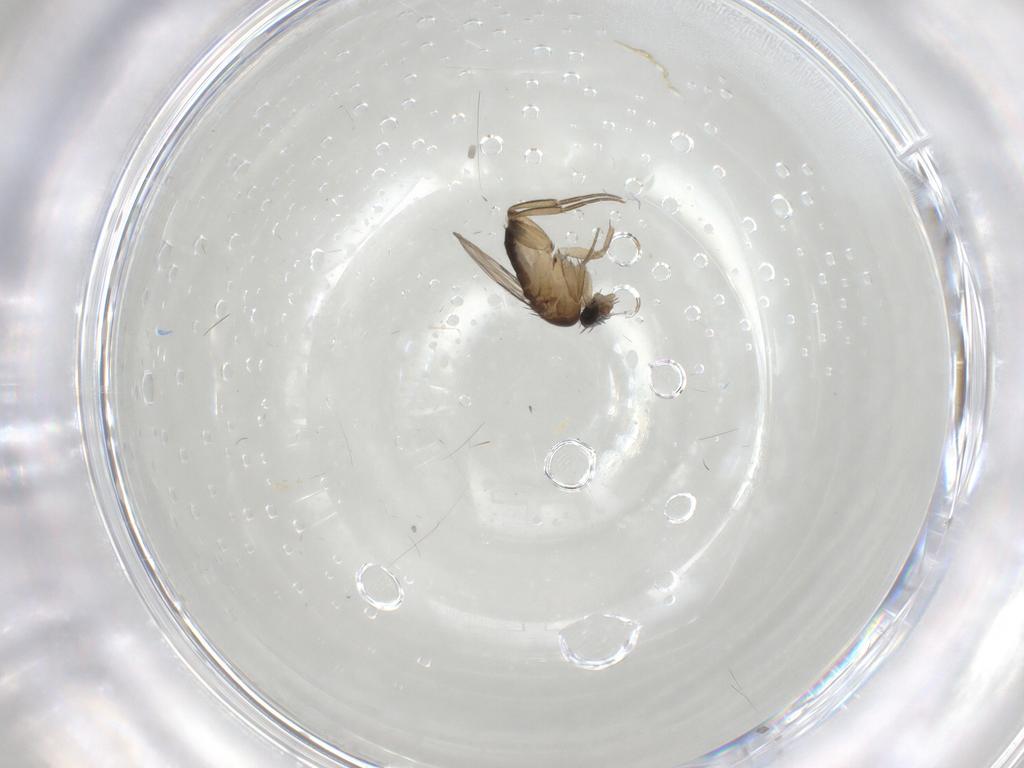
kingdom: Animalia
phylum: Arthropoda
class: Insecta
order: Diptera
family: Phoridae
